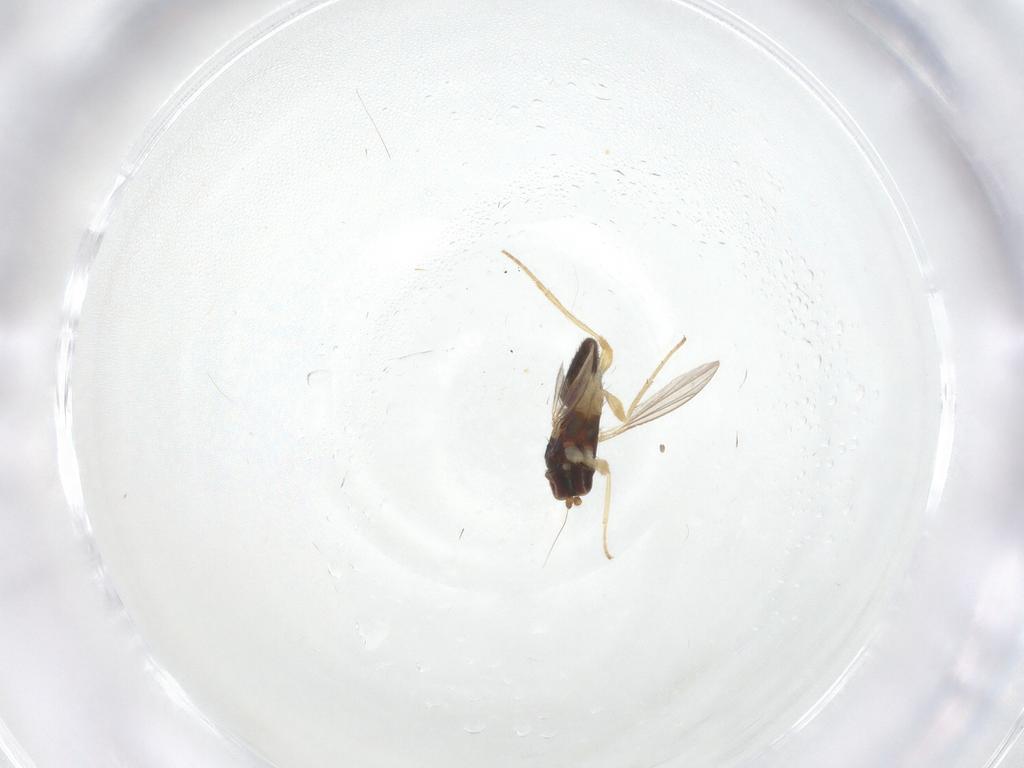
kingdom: Animalia
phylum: Arthropoda
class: Insecta
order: Diptera
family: Dolichopodidae
